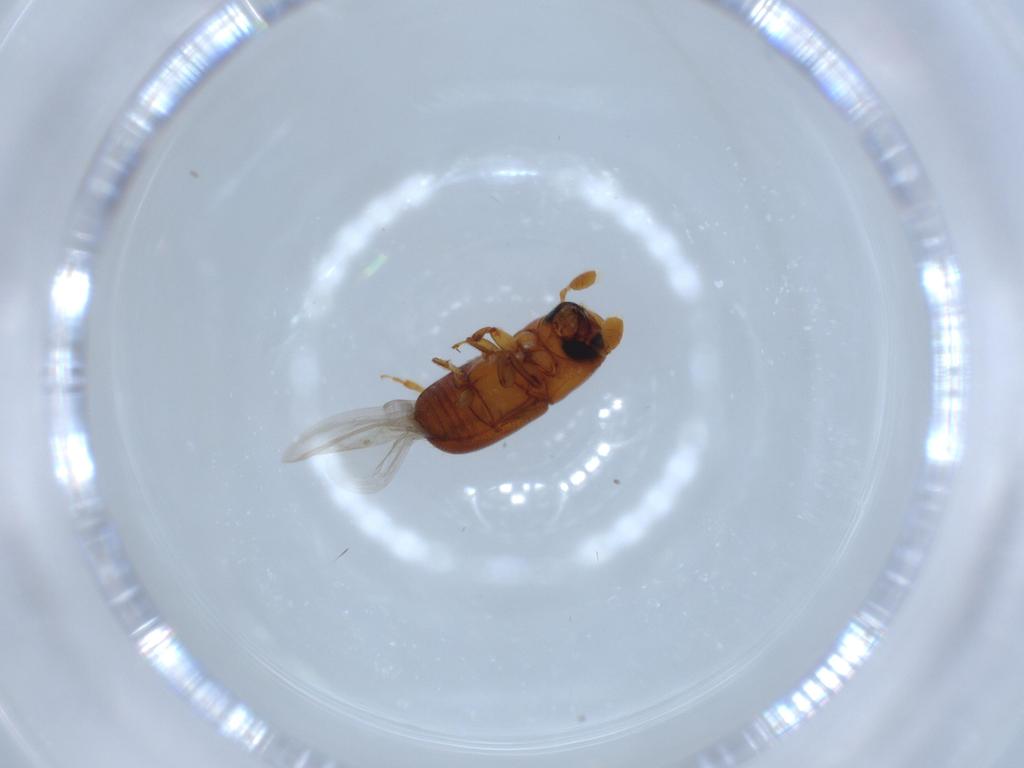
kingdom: Animalia
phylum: Arthropoda
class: Insecta
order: Coleoptera
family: Curculionidae
